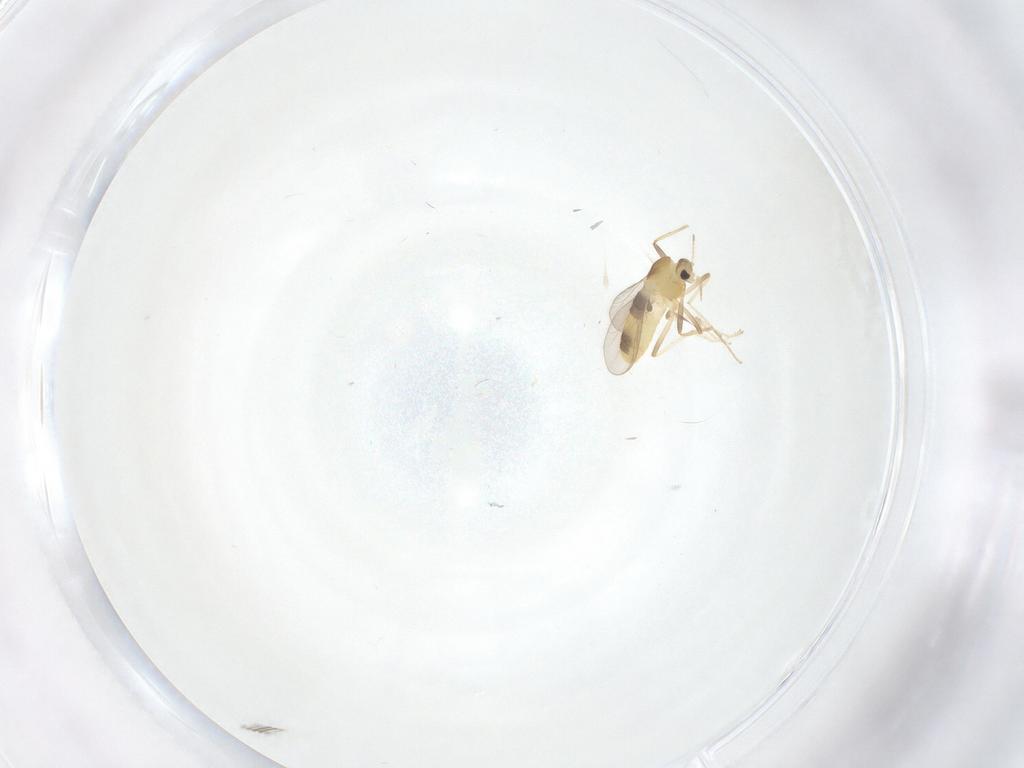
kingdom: Animalia
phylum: Arthropoda
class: Insecta
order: Diptera
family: Chironomidae
